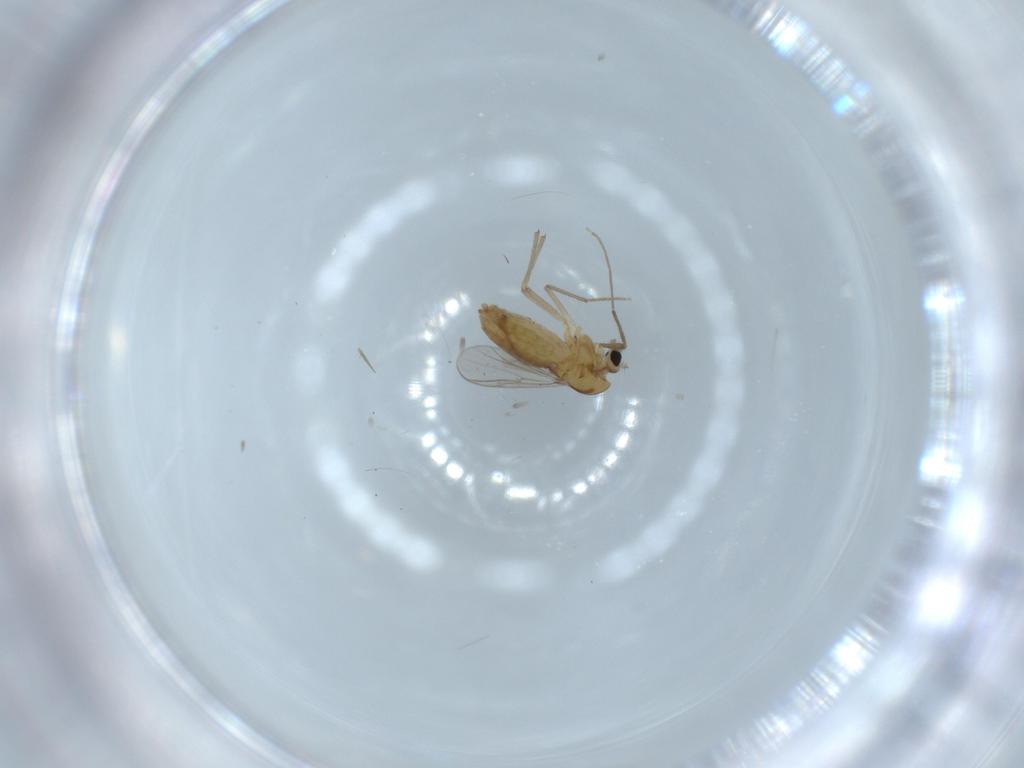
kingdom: Animalia
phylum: Arthropoda
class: Insecta
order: Diptera
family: Chironomidae
